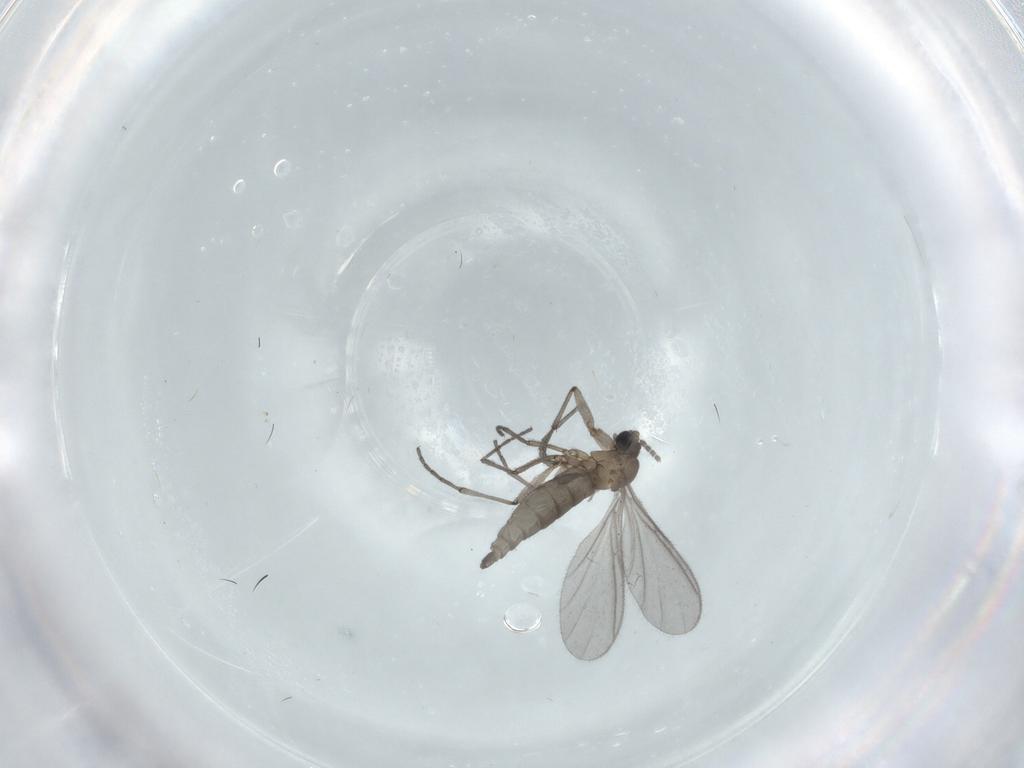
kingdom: Animalia
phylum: Arthropoda
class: Insecta
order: Diptera
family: Sciaridae
